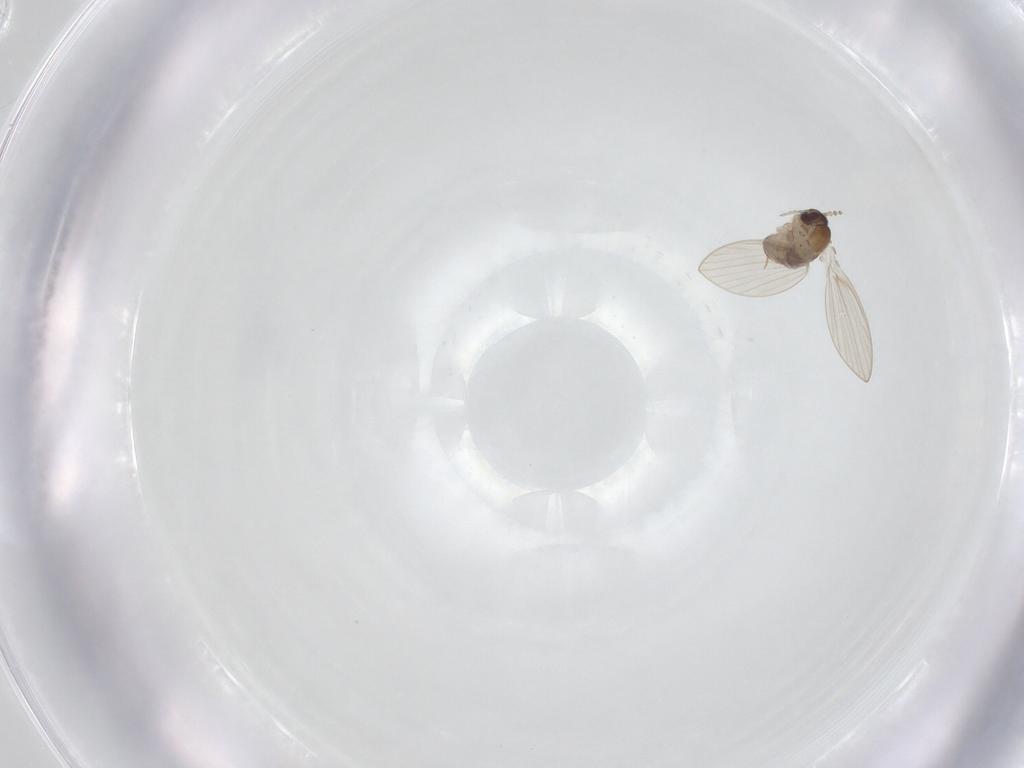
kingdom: Animalia
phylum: Arthropoda
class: Insecta
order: Diptera
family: Psychodidae
